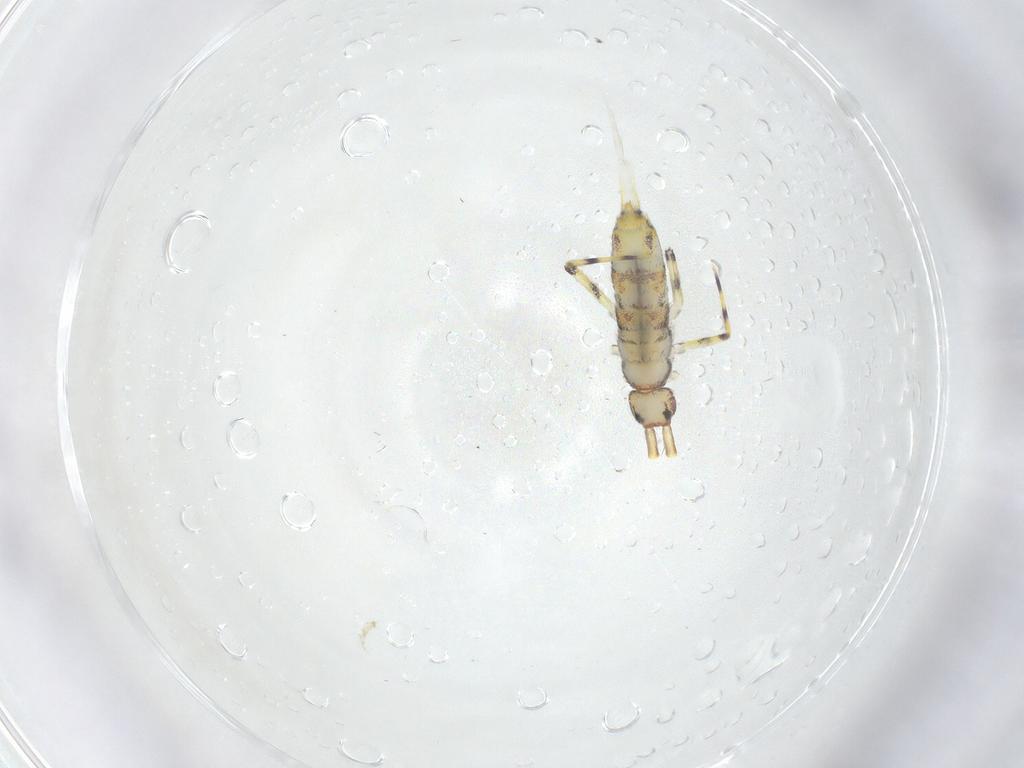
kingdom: Animalia
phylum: Arthropoda
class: Collembola
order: Entomobryomorpha
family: Entomobryidae
